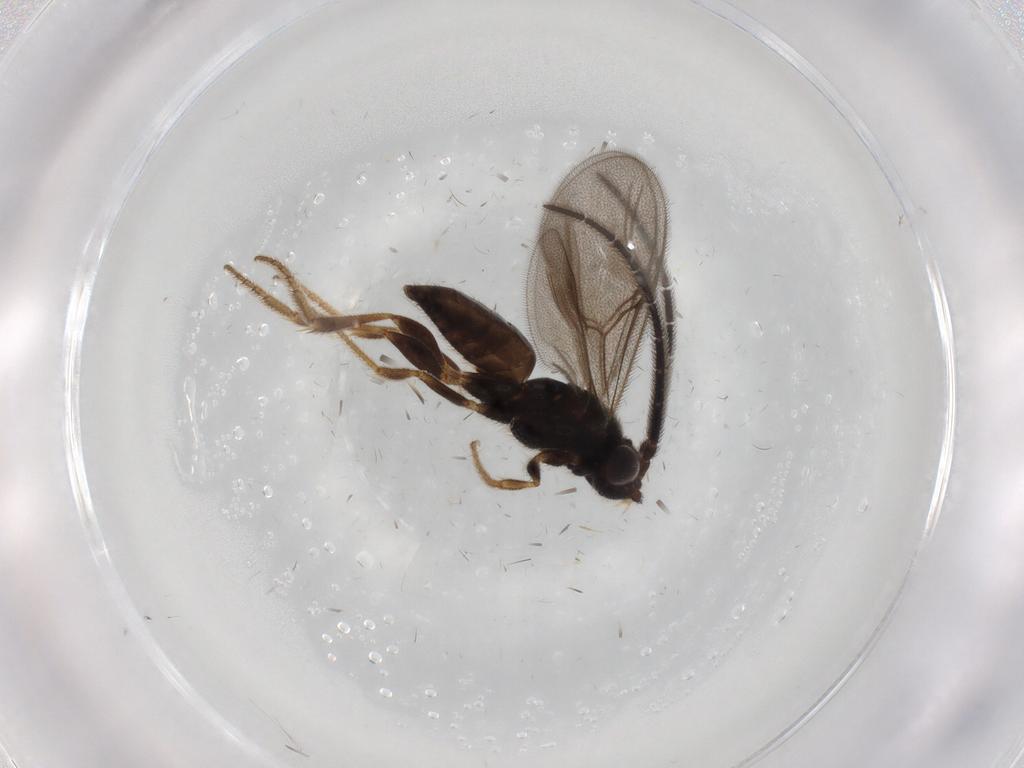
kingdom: Animalia
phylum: Arthropoda
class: Insecta
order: Hymenoptera
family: Dryinidae
